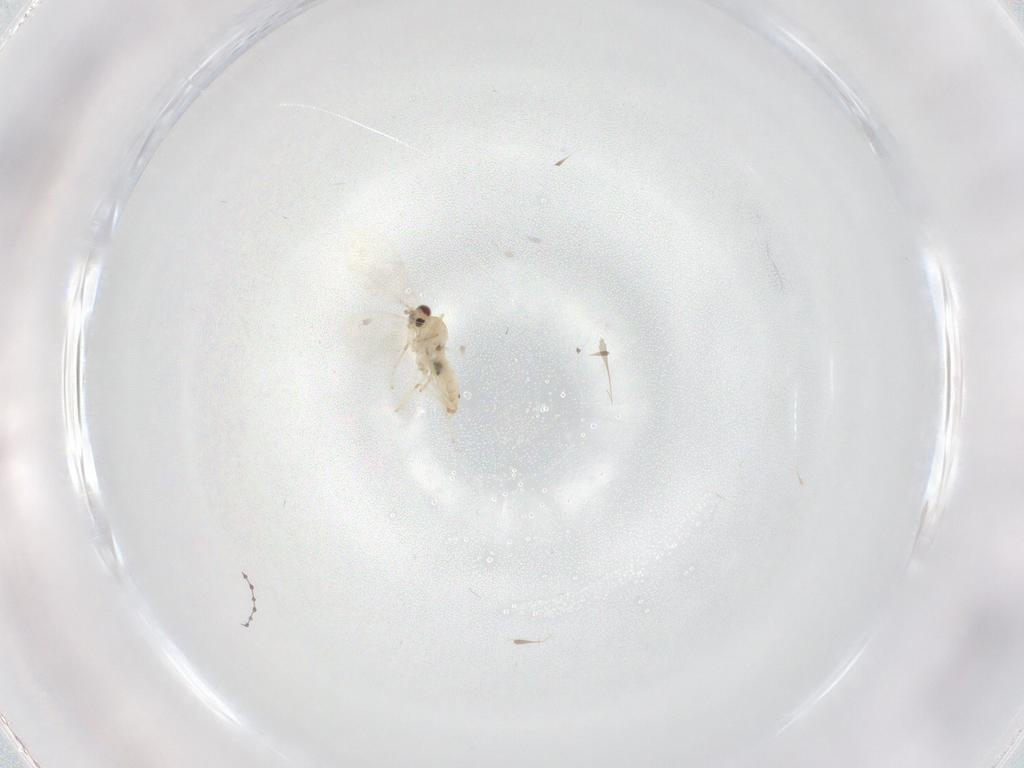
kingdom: Animalia
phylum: Arthropoda
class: Insecta
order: Diptera
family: Cecidomyiidae
